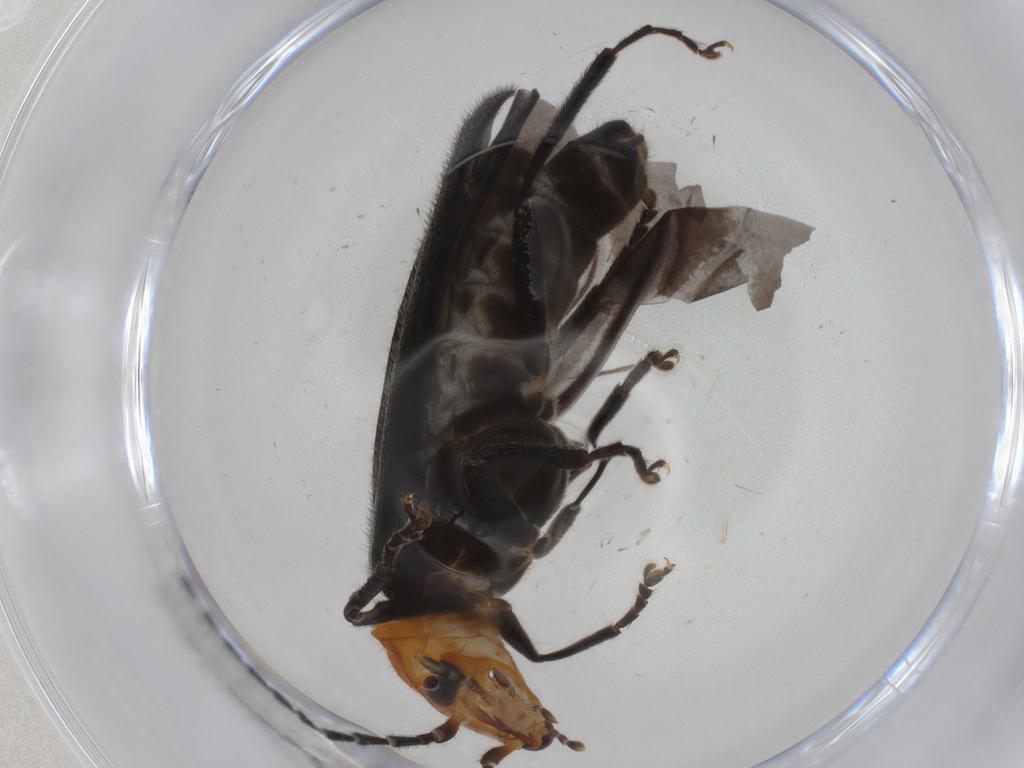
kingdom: Animalia
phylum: Arthropoda
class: Insecta
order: Coleoptera
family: Cantharidae
